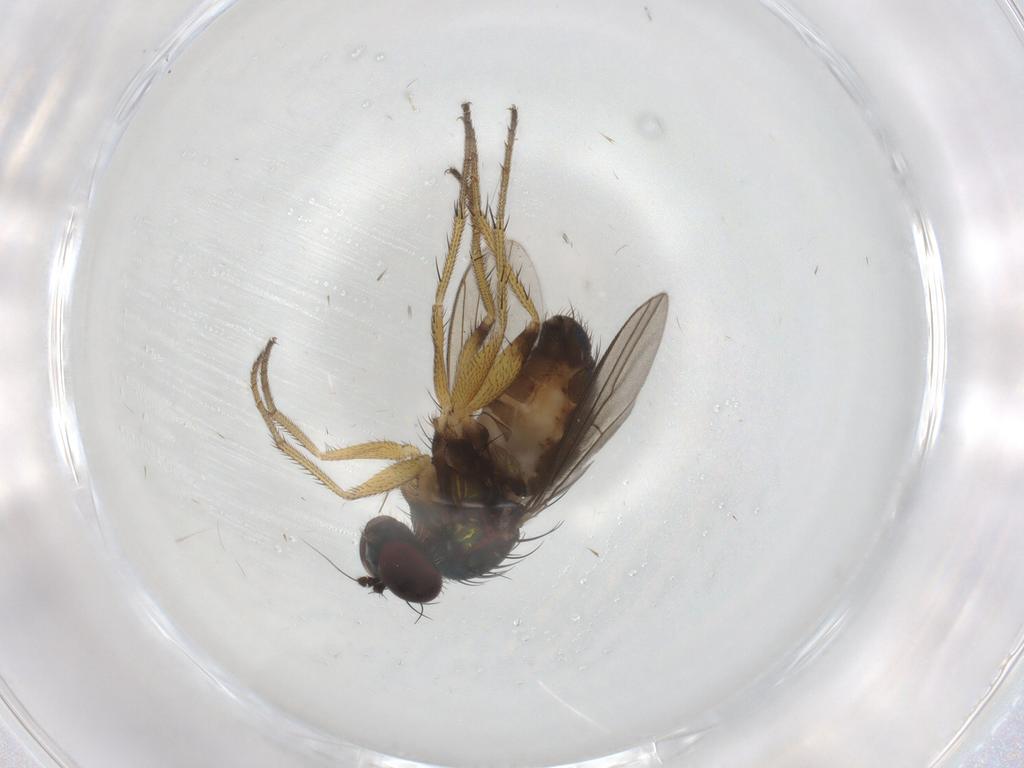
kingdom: Animalia
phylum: Arthropoda
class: Insecta
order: Diptera
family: Dolichopodidae
